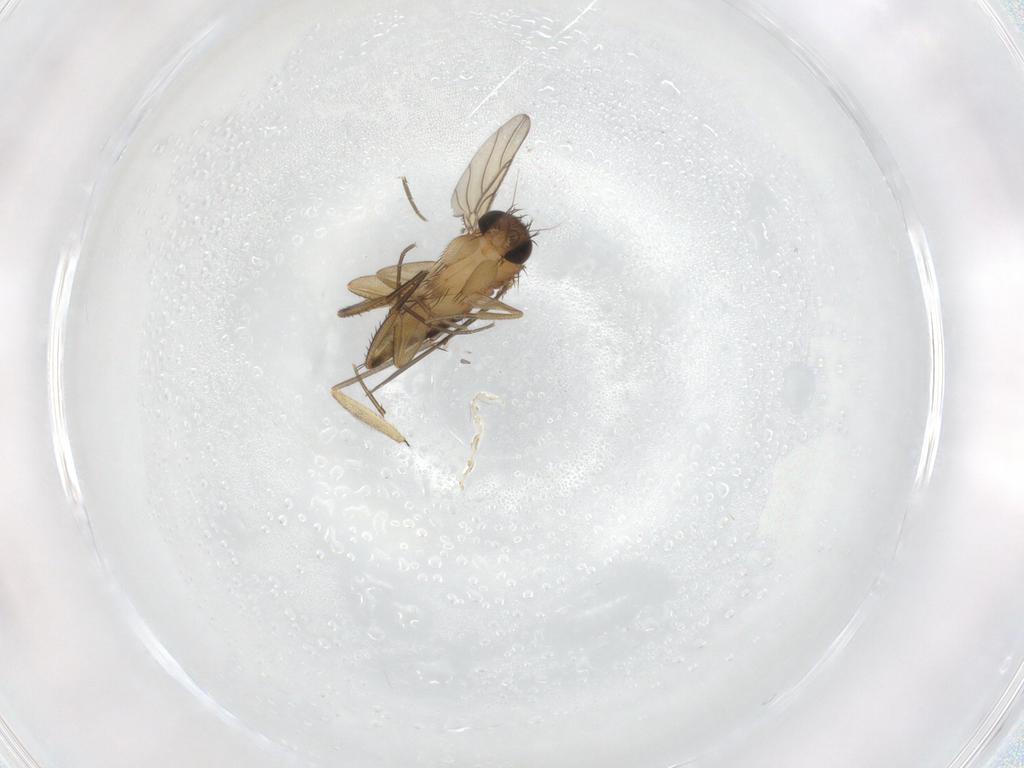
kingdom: Animalia
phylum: Arthropoda
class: Insecta
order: Diptera
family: Phoridae
